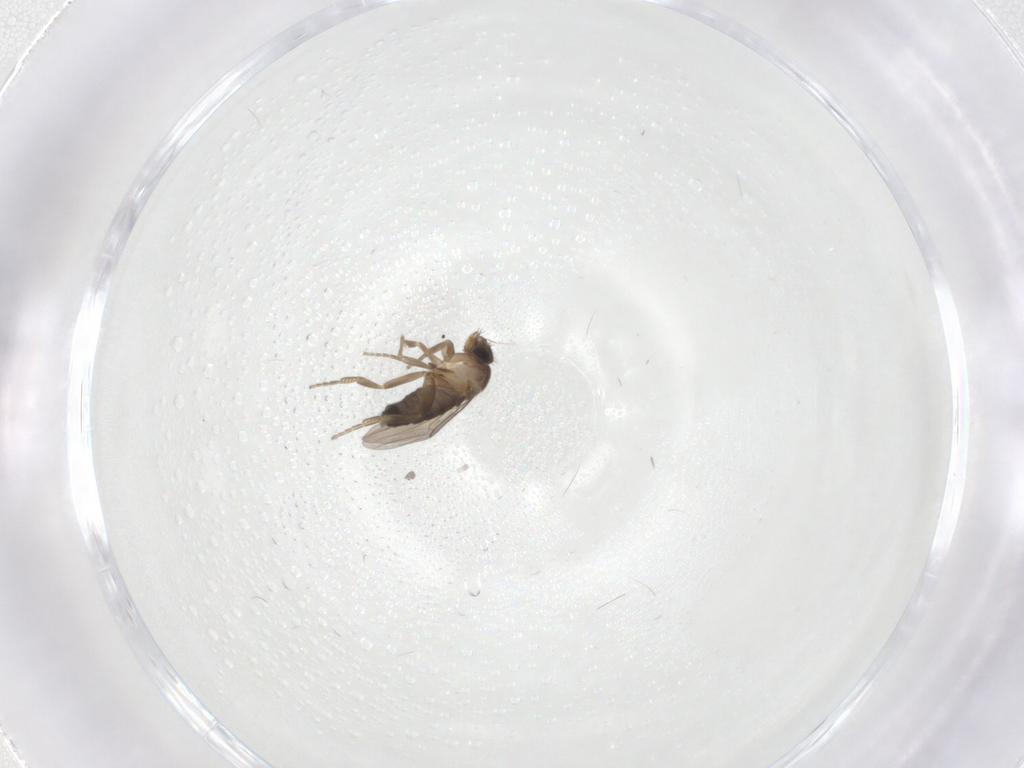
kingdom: Animalia
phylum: Arthropoda
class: Insecta
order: Diptera
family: Phoridae
